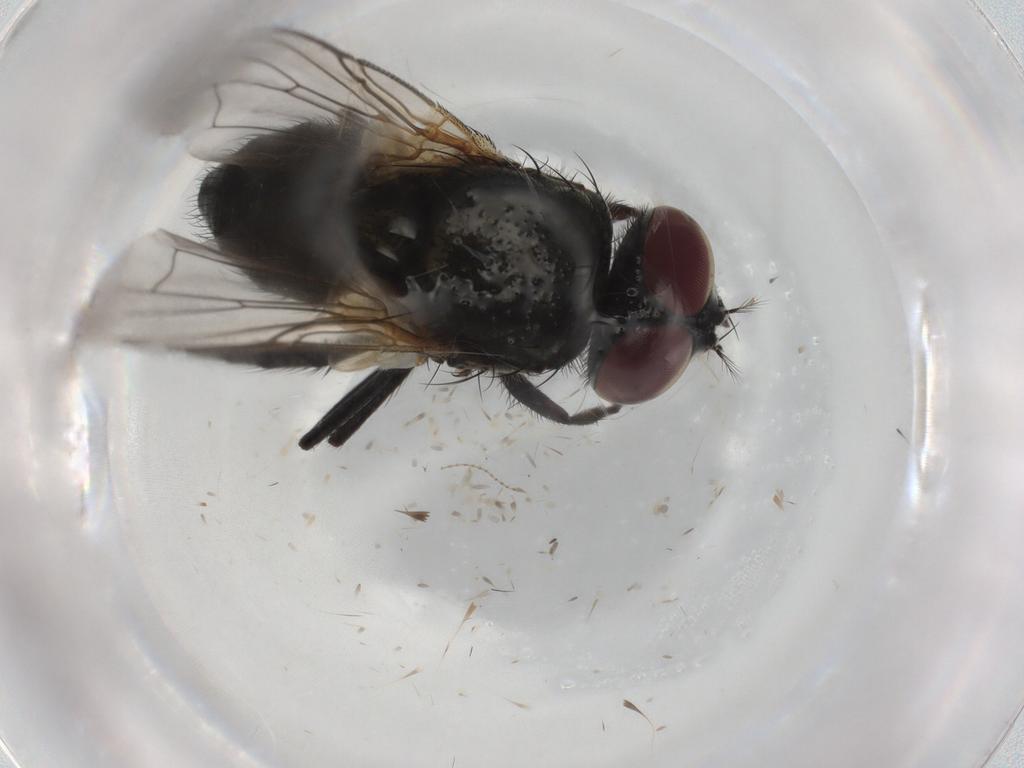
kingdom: Animalia
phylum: Arthropoda
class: Insecta
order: Diptera
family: Muscidae
